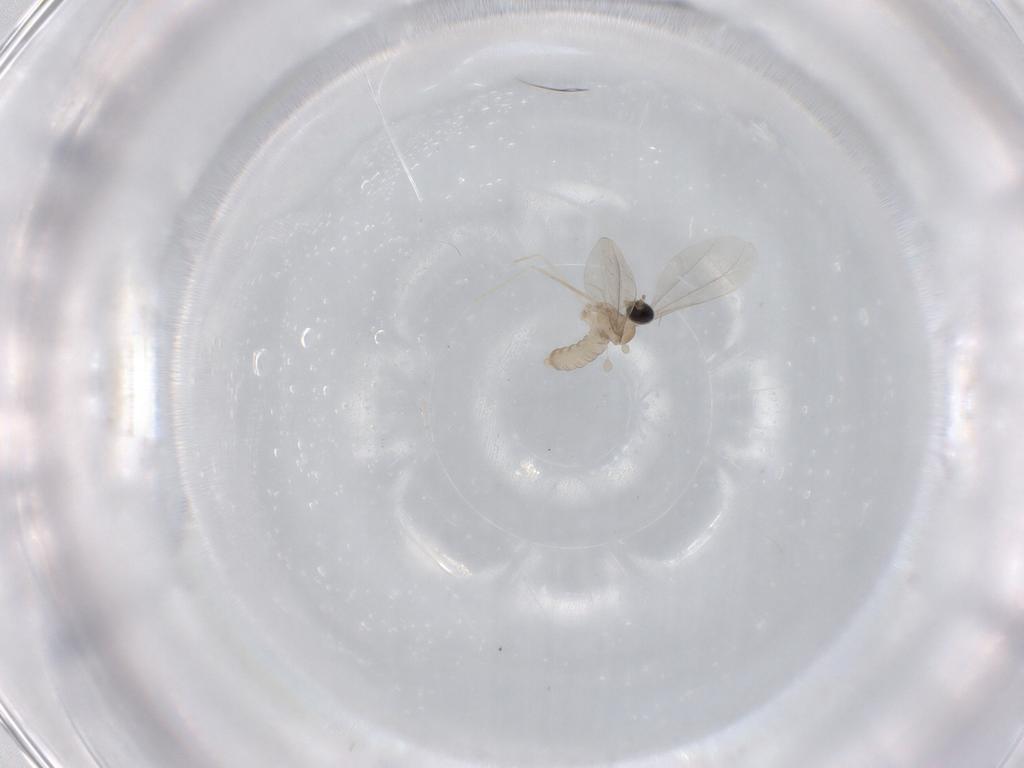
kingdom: Animalia
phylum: Arthropoda
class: Insecta
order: Diptera
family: Cecidomyiidae
